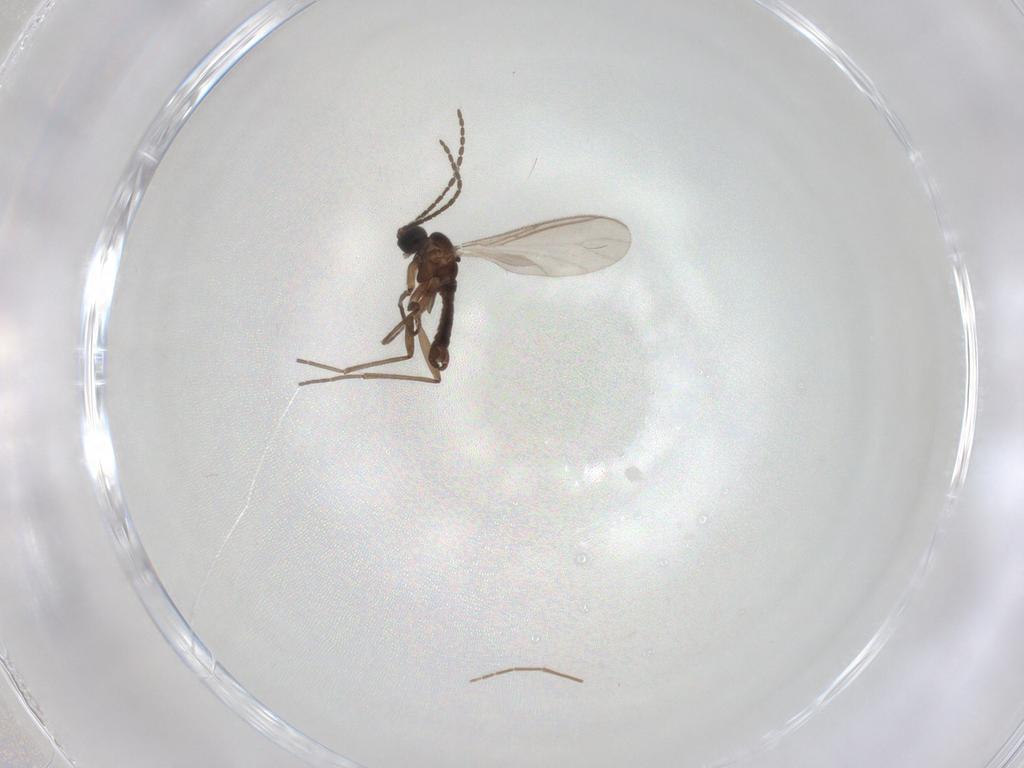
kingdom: Animalia
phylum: Arthropoda
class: Insecta
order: Diptera
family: Sciaridae
